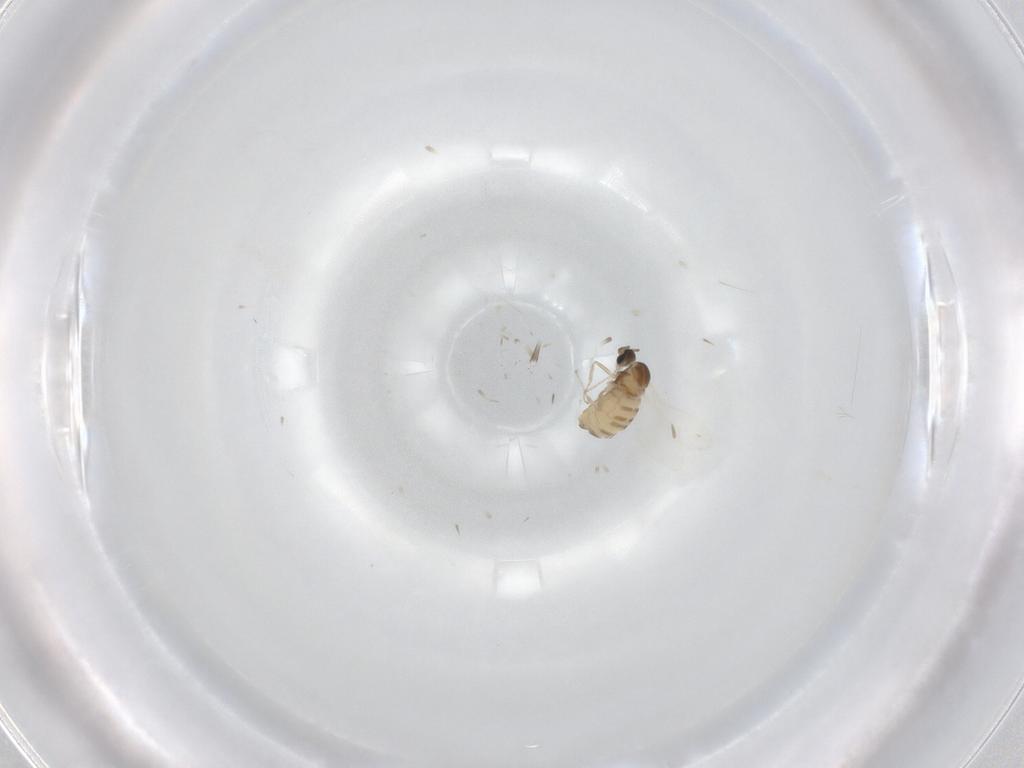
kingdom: Animalia
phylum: Arthropoda
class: Insecta
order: Diptera
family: Cecidomyiidae
